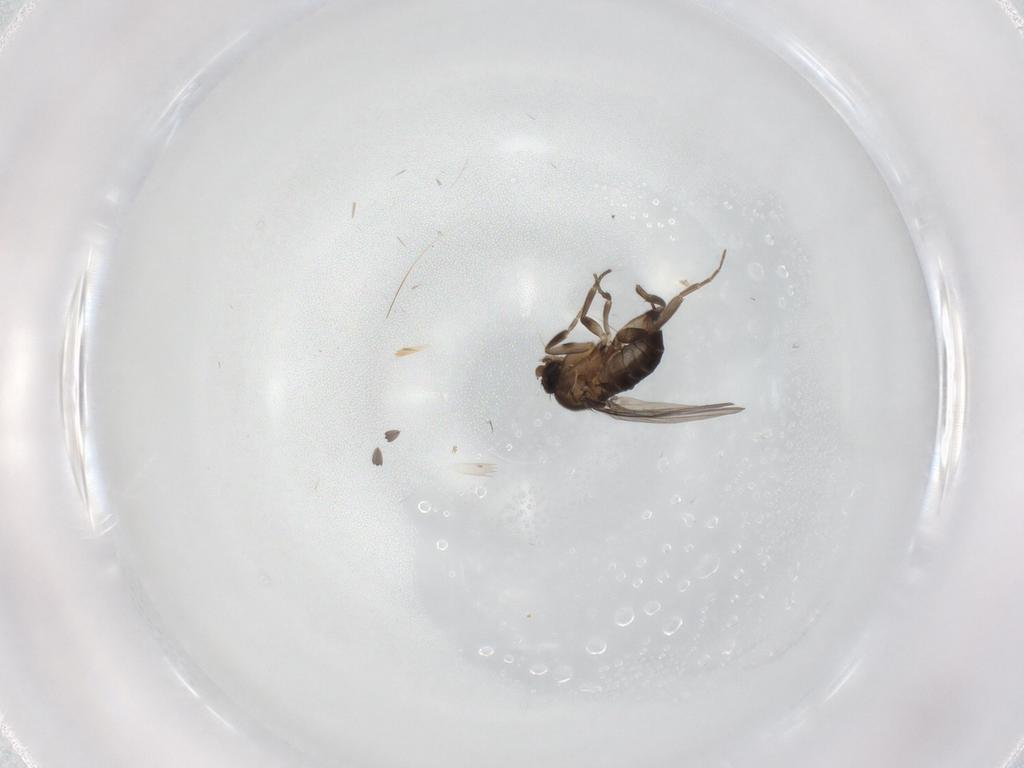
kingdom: Animalia
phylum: Arthropoda
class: Insecta
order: Diptera
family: Phoridae
